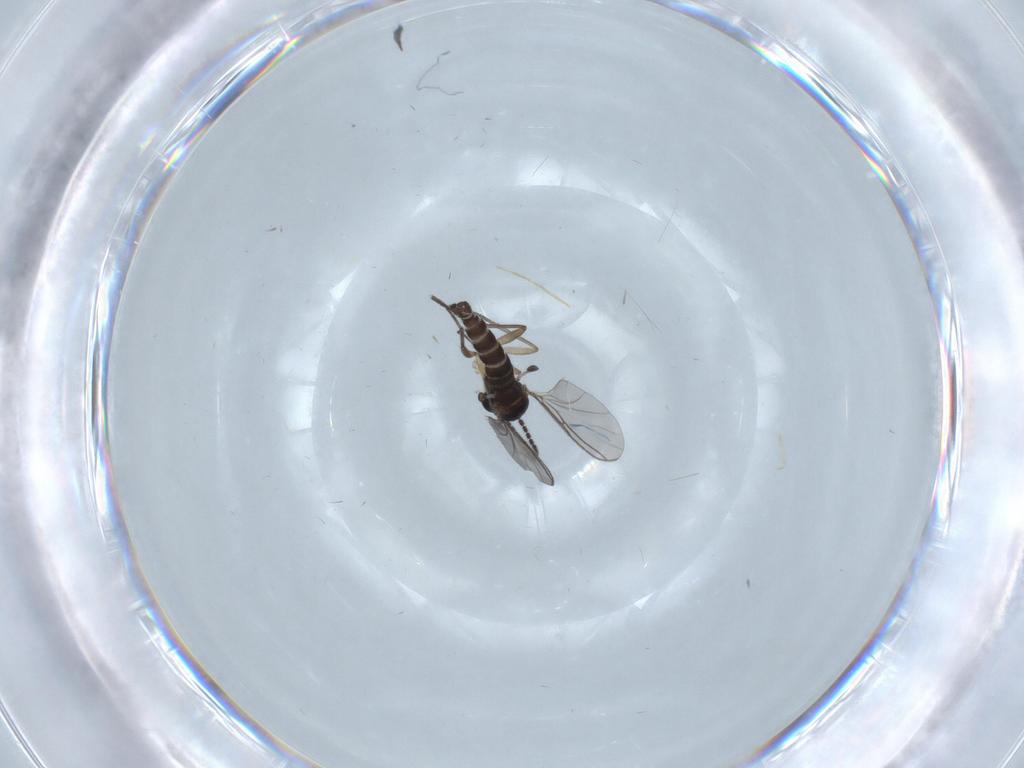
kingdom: Animalia
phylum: Arthropoda
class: Insecta
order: Diptera
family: Sciaridae
